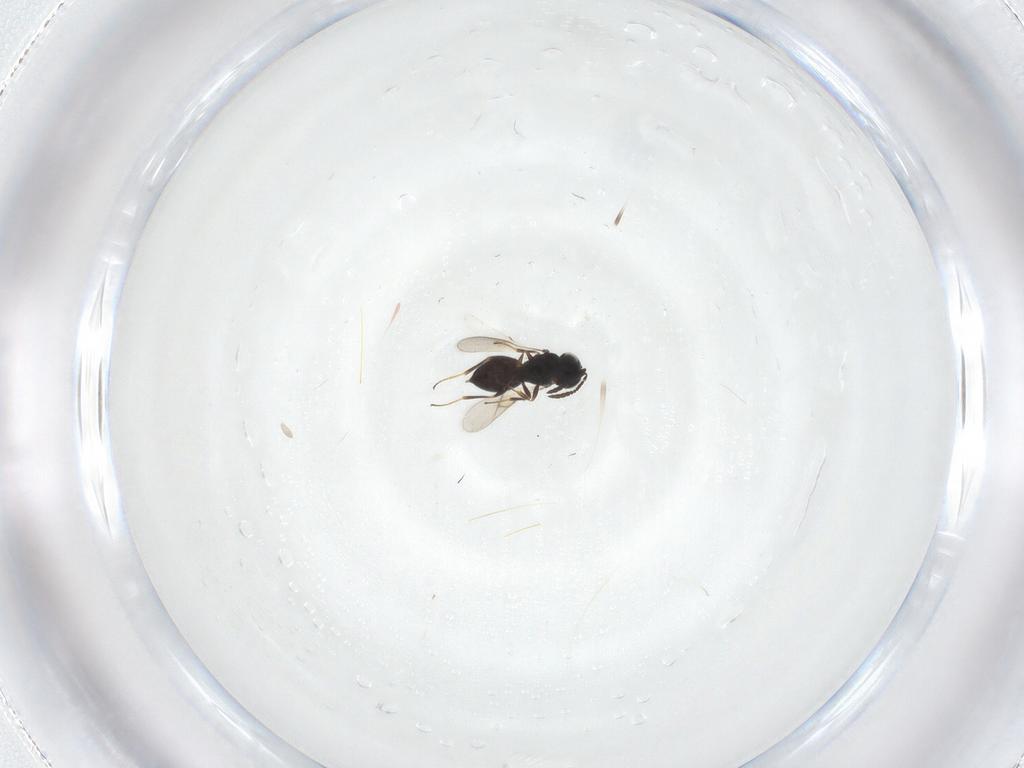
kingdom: Animalia
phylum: Arthropoda
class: Insecta
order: Hymenoptera
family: Scelionidae
